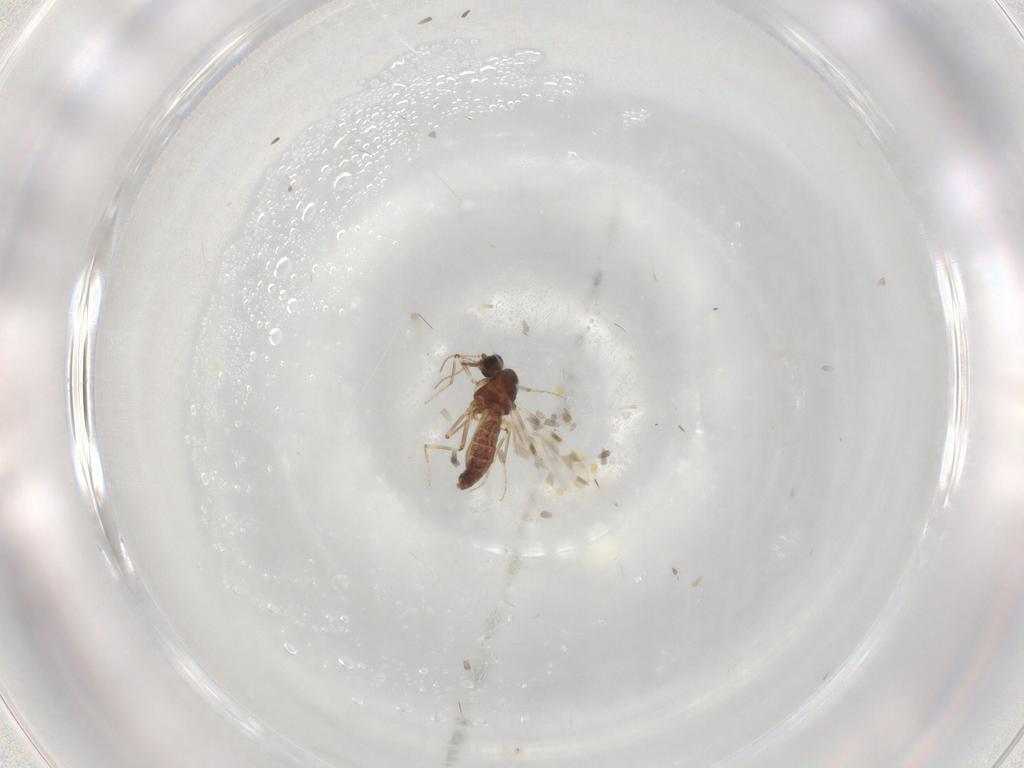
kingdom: Animalia
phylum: Arthropoda
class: Insecta
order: Diptera
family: Ceratopogonidae
